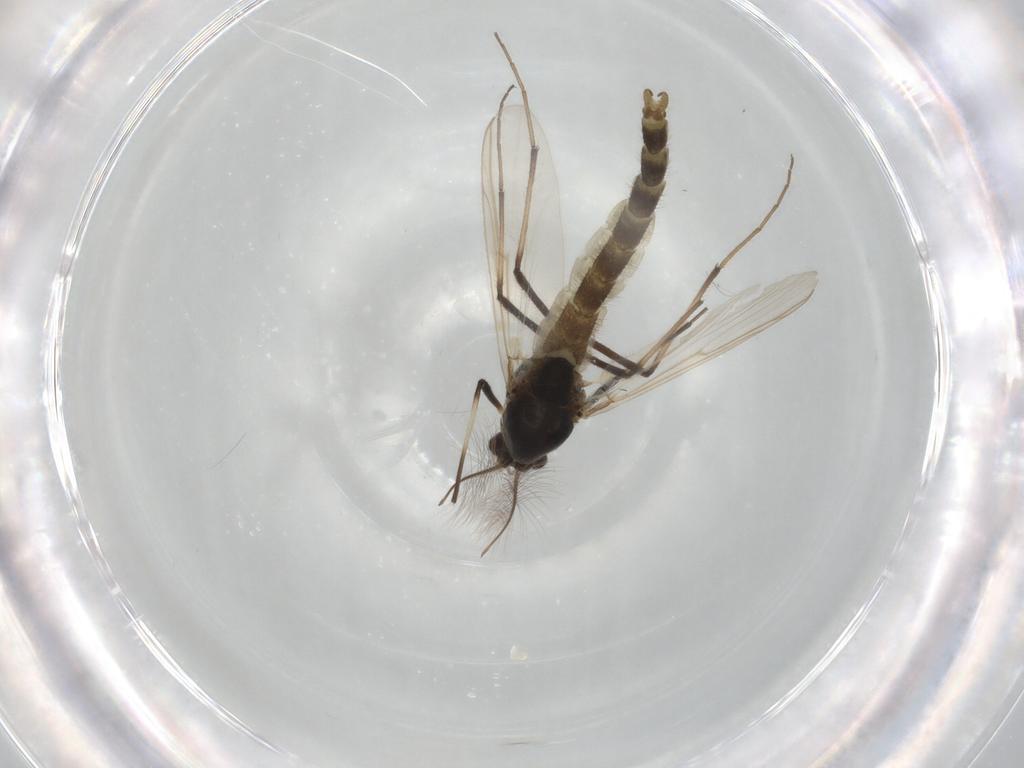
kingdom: Animalia
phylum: Arthropoda
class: Insecta
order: Diptera
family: Chironomidae
